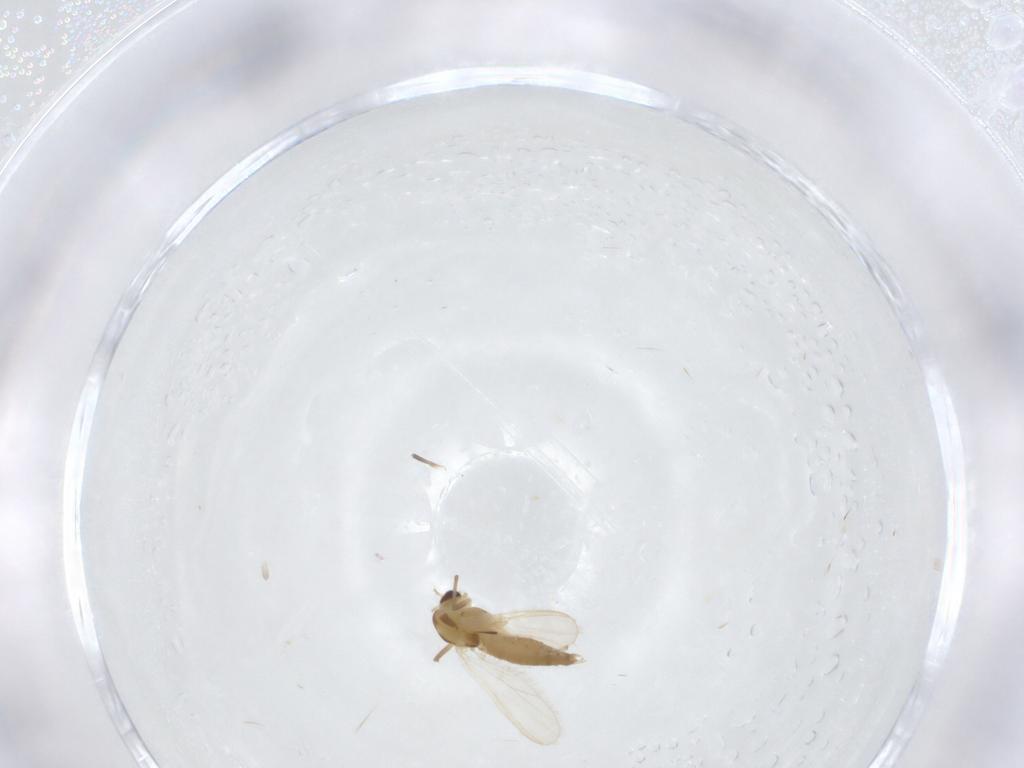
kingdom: Animalia
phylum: Arthropoda
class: Insecta
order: Diptera
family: Chironomidae
